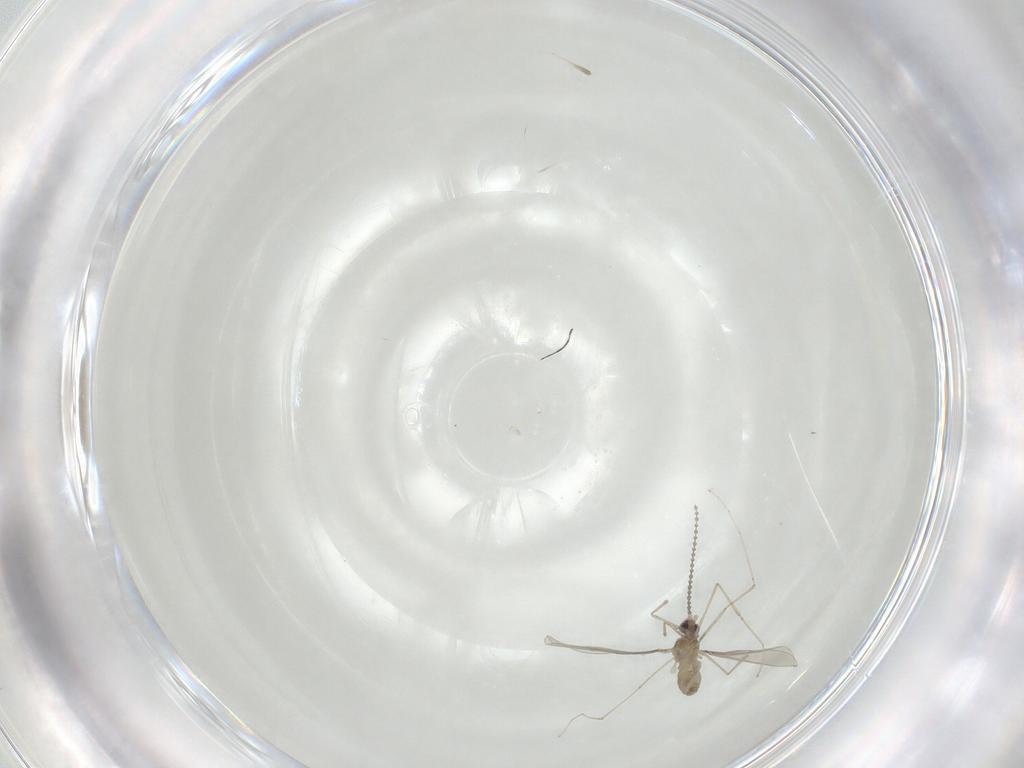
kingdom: Animalia
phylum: Arthropoda
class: Insecta
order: Diptera
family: Cecidomyiidae
